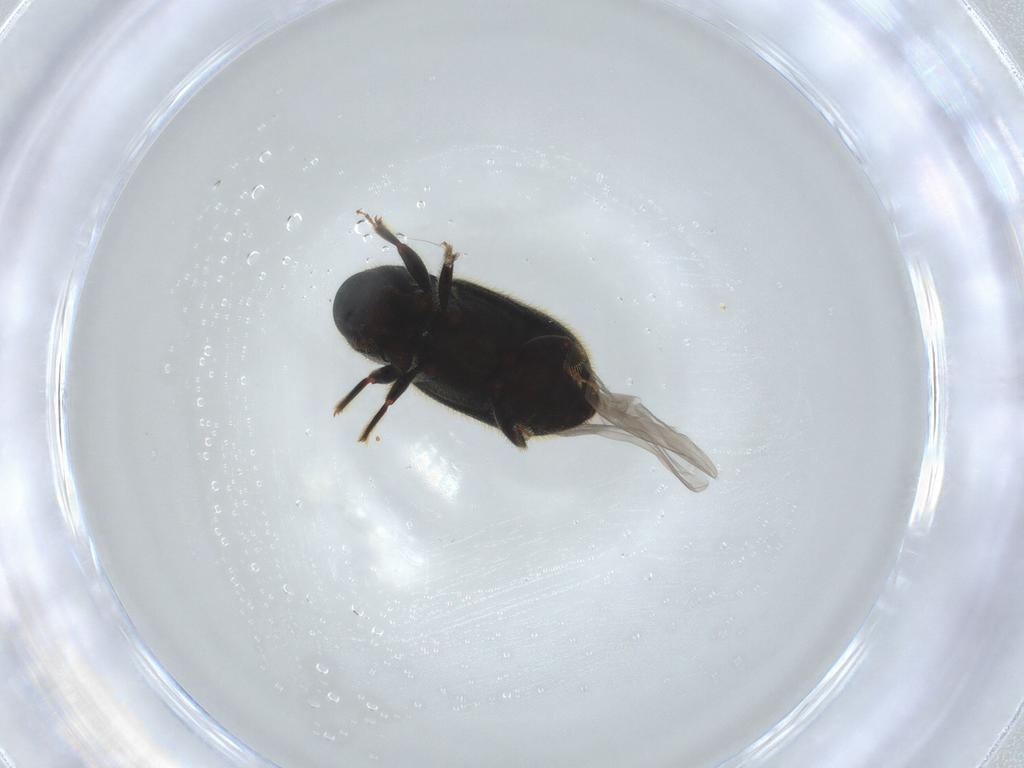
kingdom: Animalia
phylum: Arthropoda
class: Insecta
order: Coleoptera
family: Curculionidae
